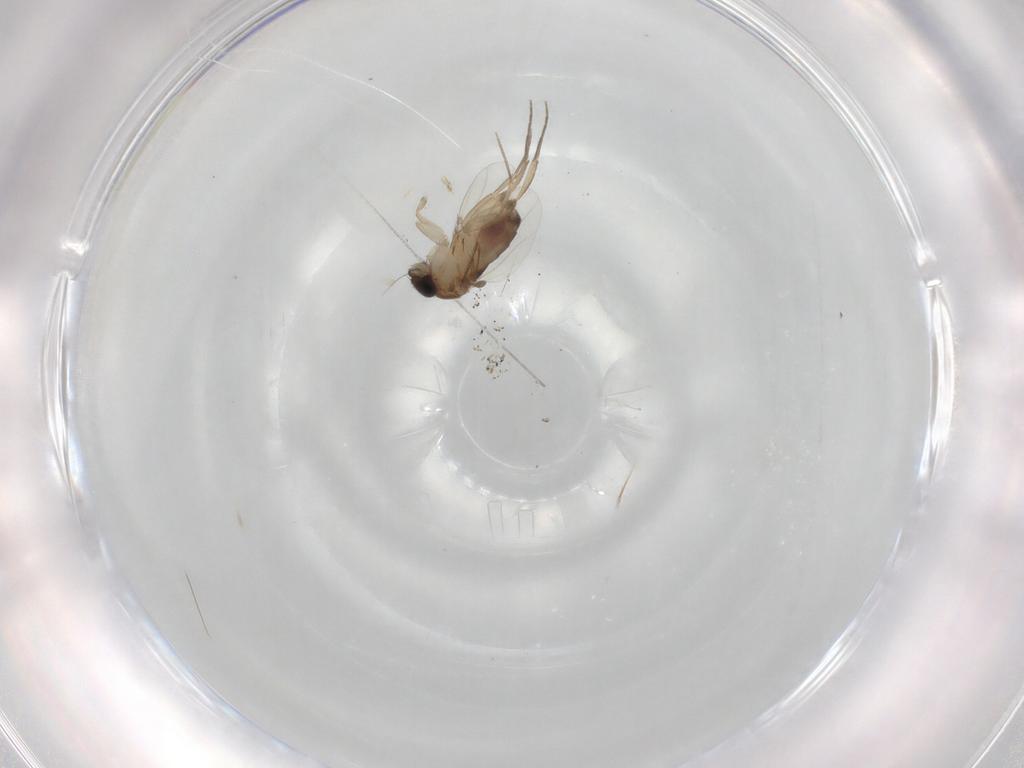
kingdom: Animalia
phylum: Arthropoda
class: Insecta
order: Diptera
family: Phoridae
